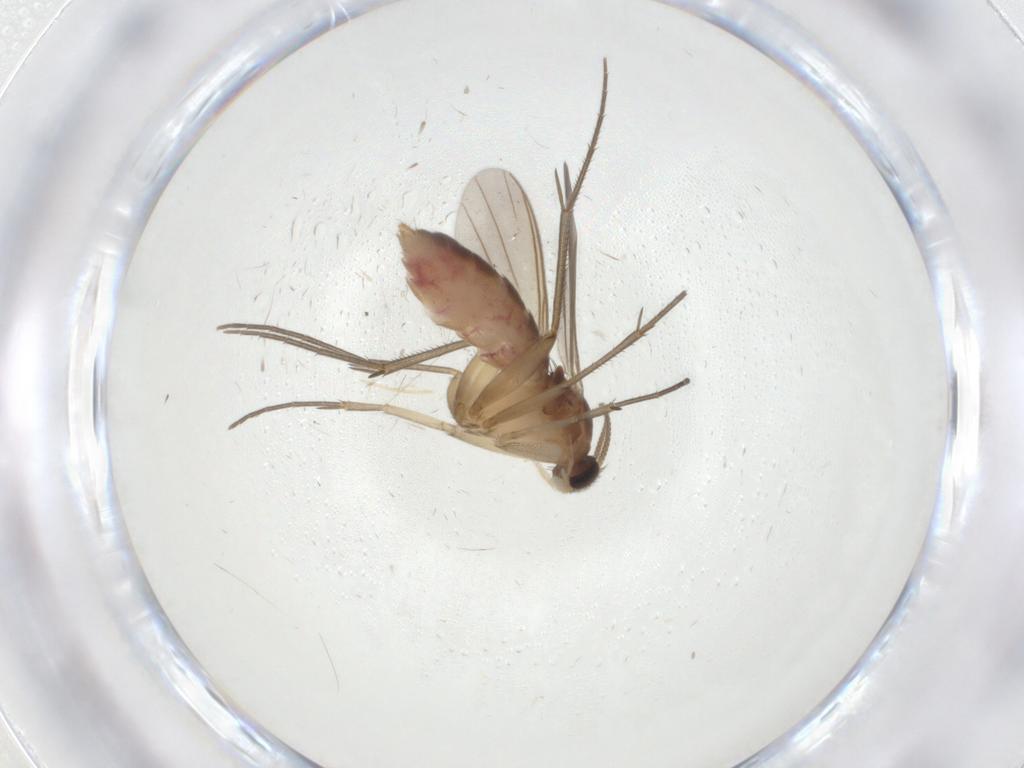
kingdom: Animalia
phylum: Arthropoda
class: Insecta
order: Diptera
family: Mycetophilidae
